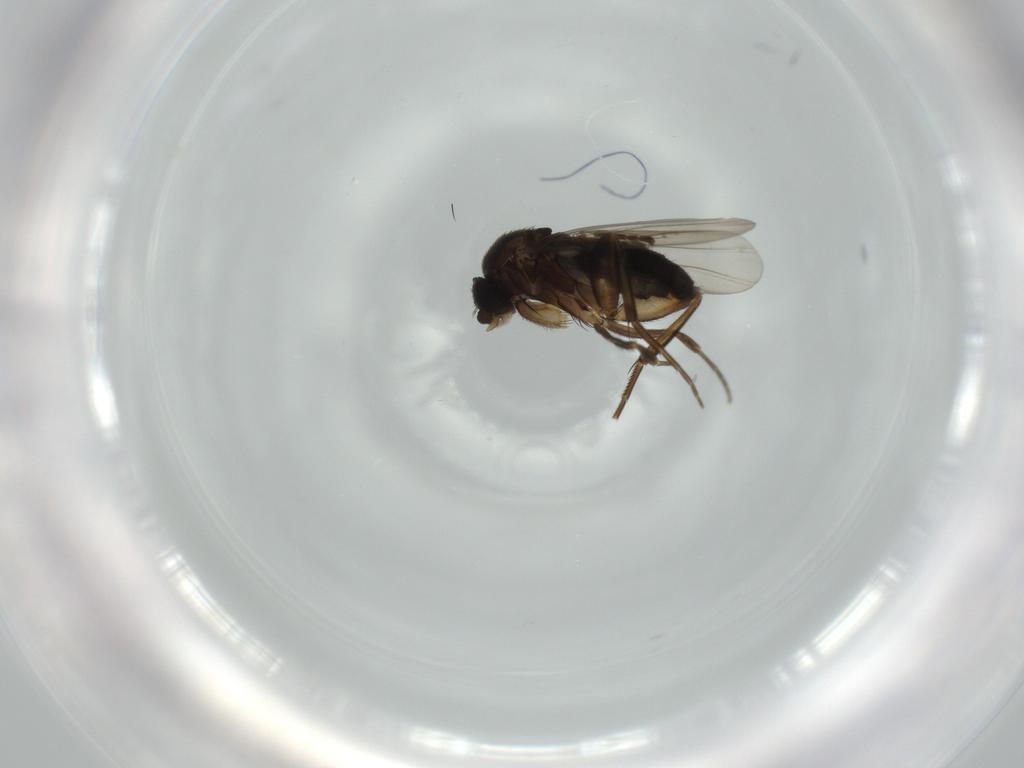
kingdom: Animalia
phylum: Arthropoda
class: Insecta
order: Diptera
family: Phoridae
